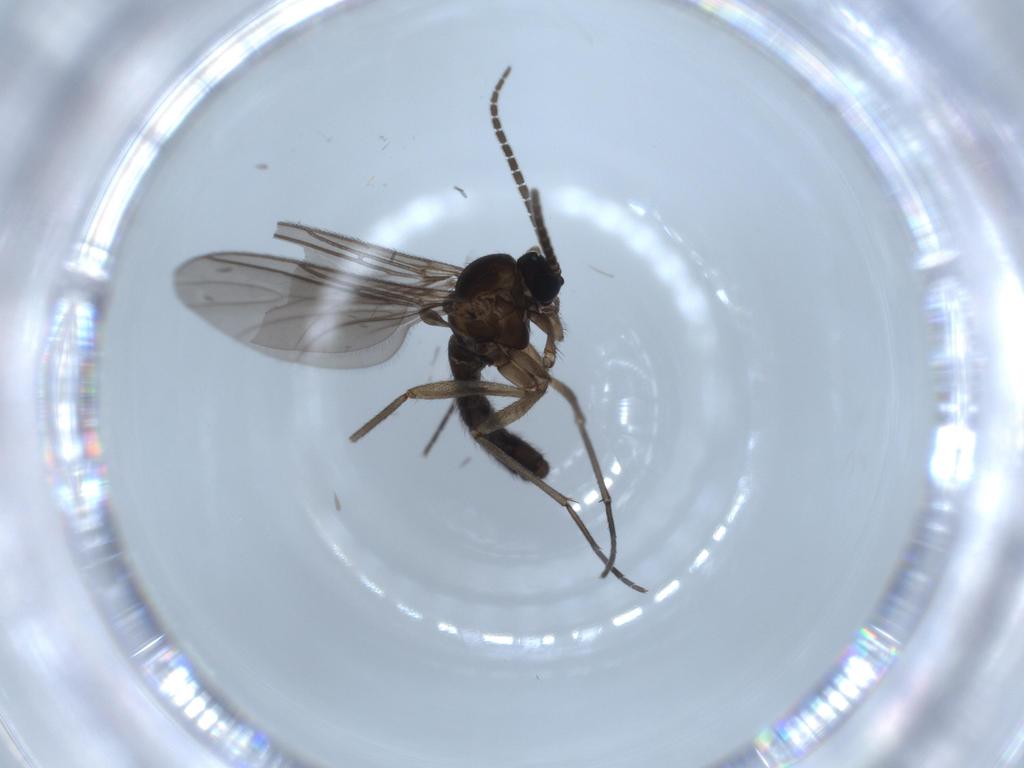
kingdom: Animalia
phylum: Arthropoda
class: Insecta
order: Diptera
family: Sciaridae
